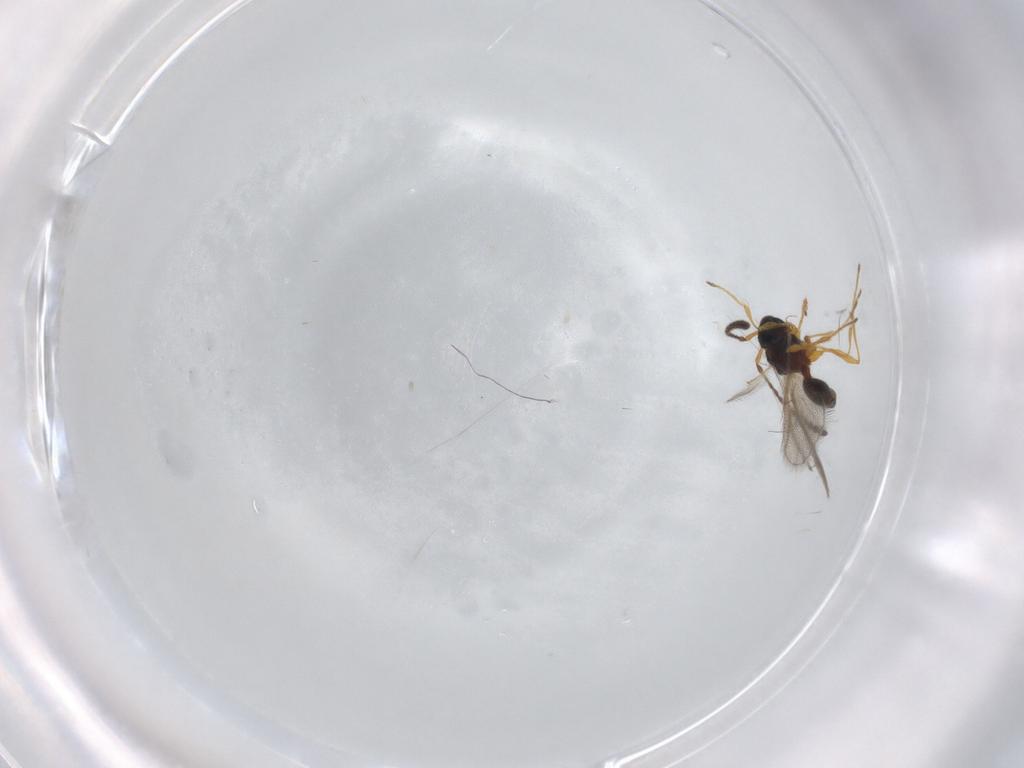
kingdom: Animalia
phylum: Arthropoda
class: Insecta
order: Hymenoptera
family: Diapriidae
